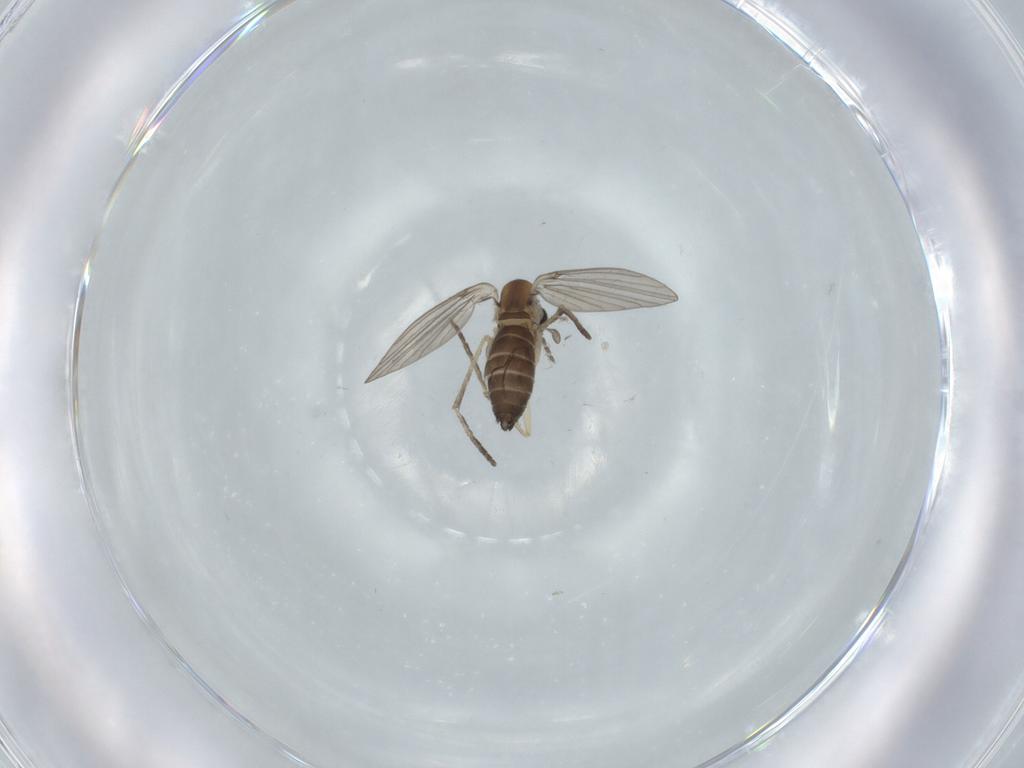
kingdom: Animalia
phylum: Arthropoda
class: Insecta
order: Diptera
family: Psychodidae
